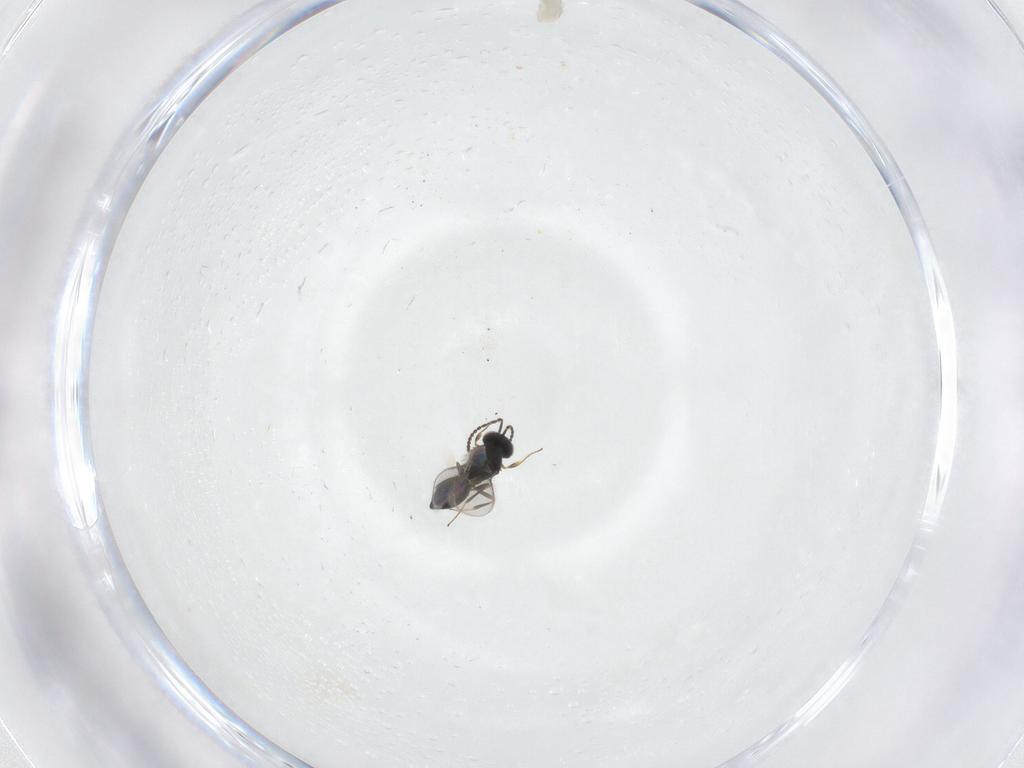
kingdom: Animalia
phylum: Arthropoda
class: Insecta
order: Hymenoptera
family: Scelionidae
